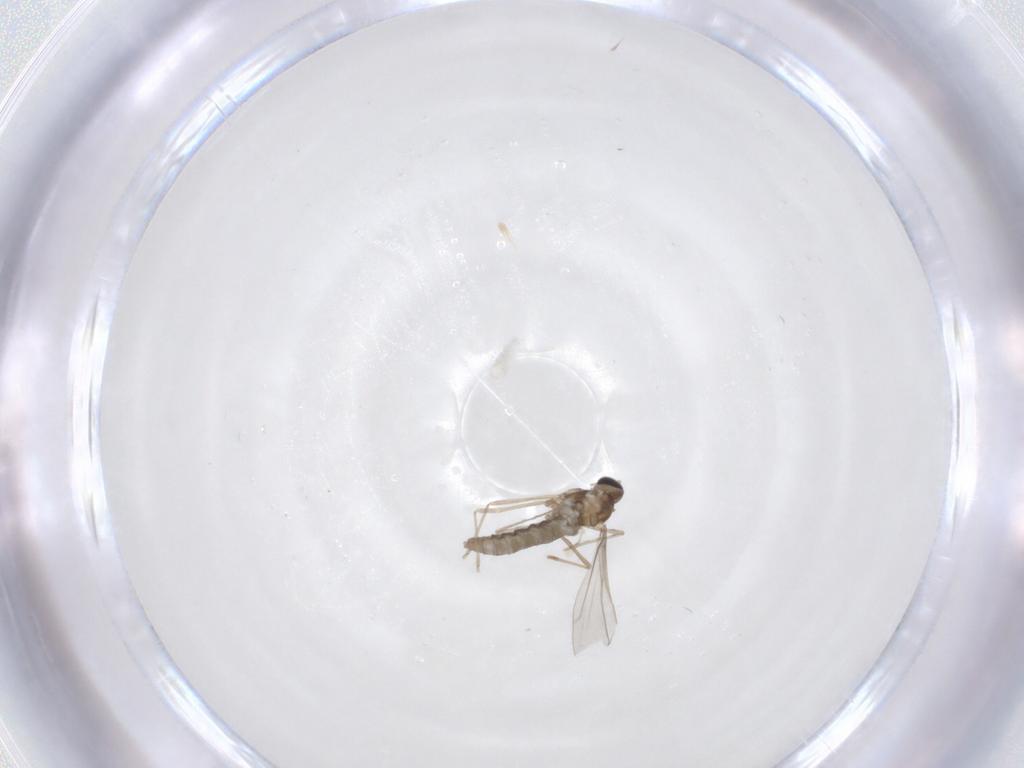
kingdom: Animalia
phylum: Arthropoda
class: Insecta
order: Diptera
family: Cecidomyiidae
